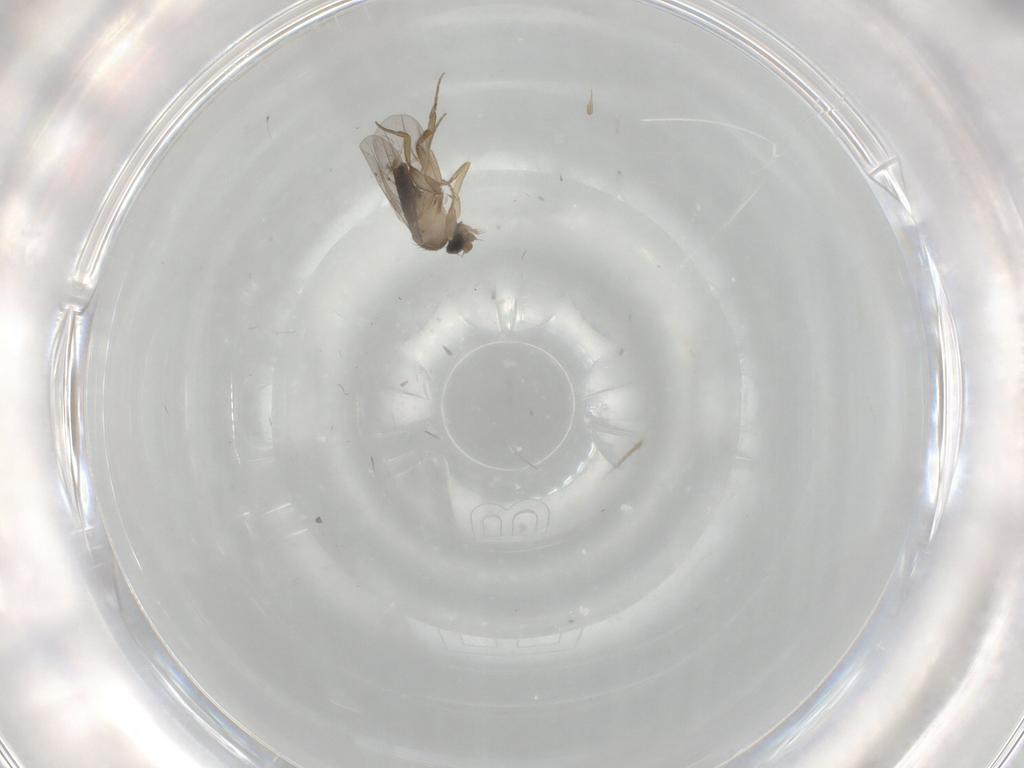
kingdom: Animalia
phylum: Arthropoda
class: Insecta
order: Diptera
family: Phoridae
